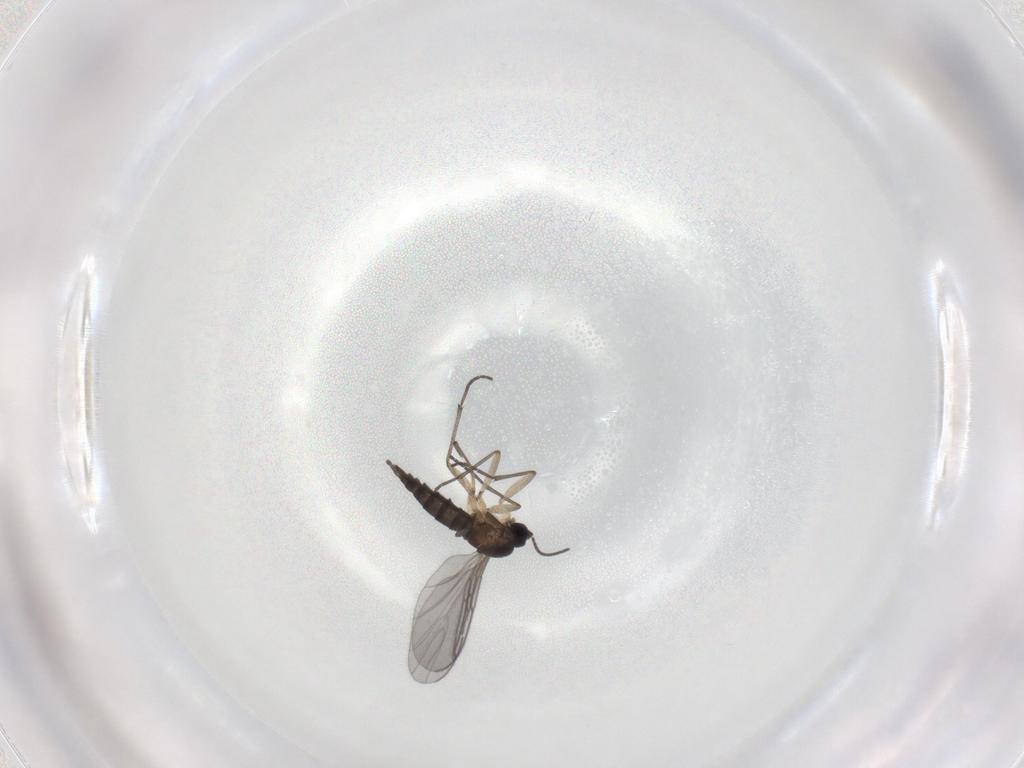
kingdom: Animalia
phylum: Arthropoda
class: Insecta
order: Diptera
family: Sciaridae
